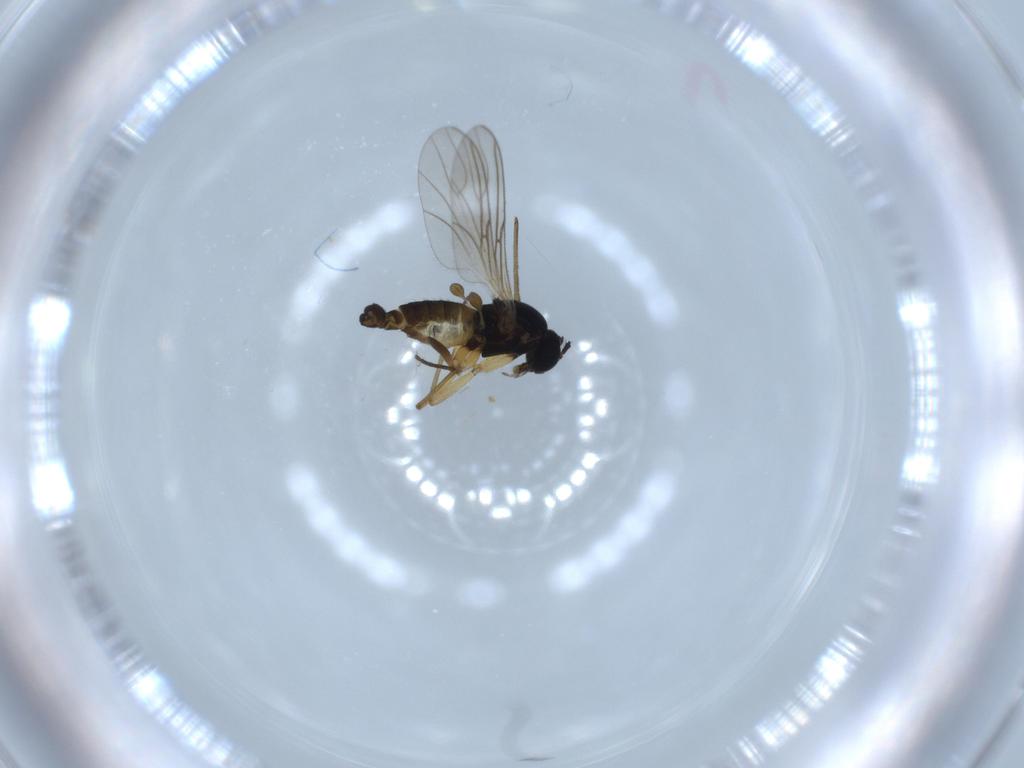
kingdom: Animalia
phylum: Arthropoda
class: Insecta
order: Diptera
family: Sciaridae
